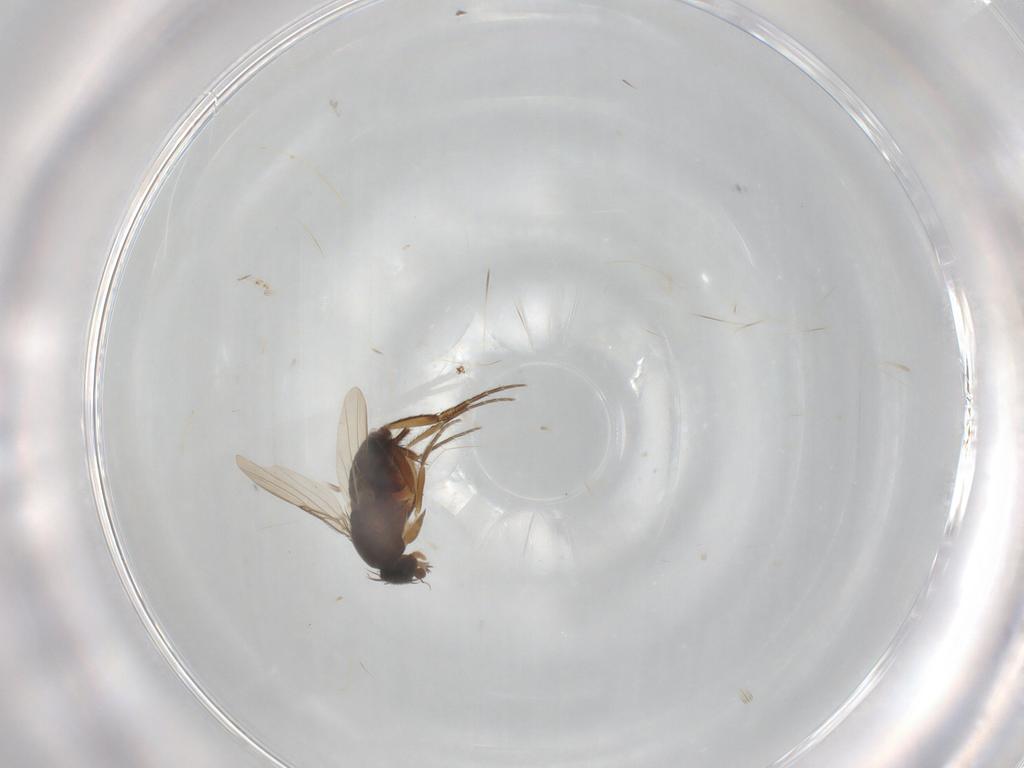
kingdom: Animalia
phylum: Arthropoda
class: Insecta
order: Diptera
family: Phoridae
